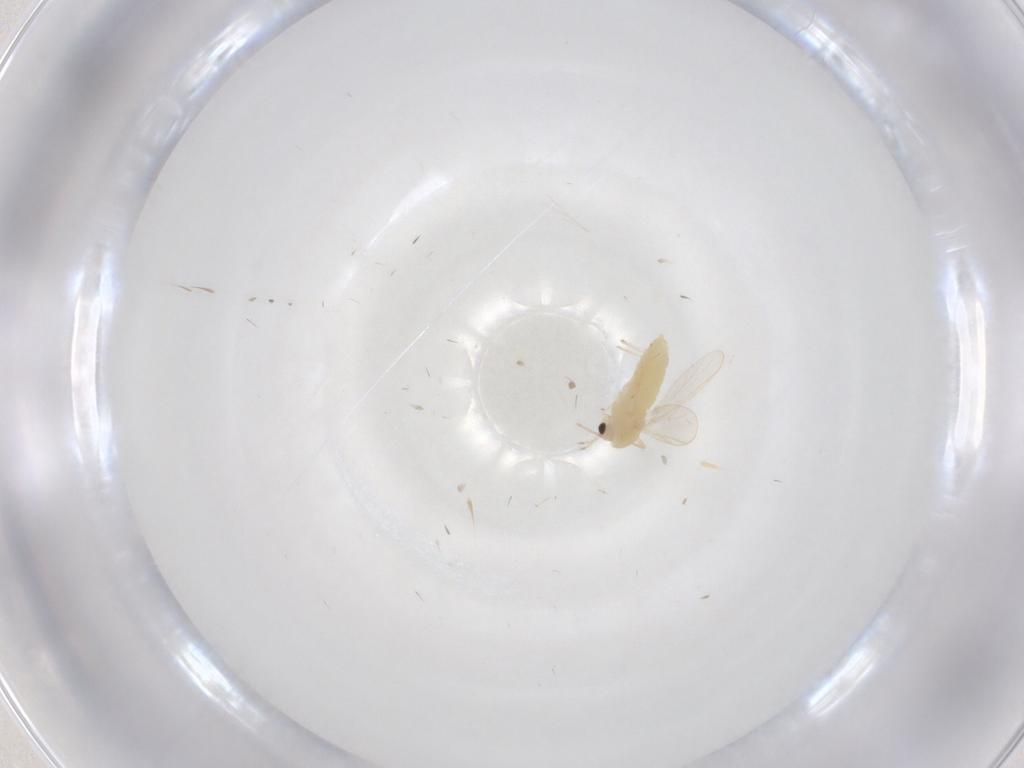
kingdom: Animalia
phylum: Arthropoda
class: Insecta
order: Diptera
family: Chironomidae
